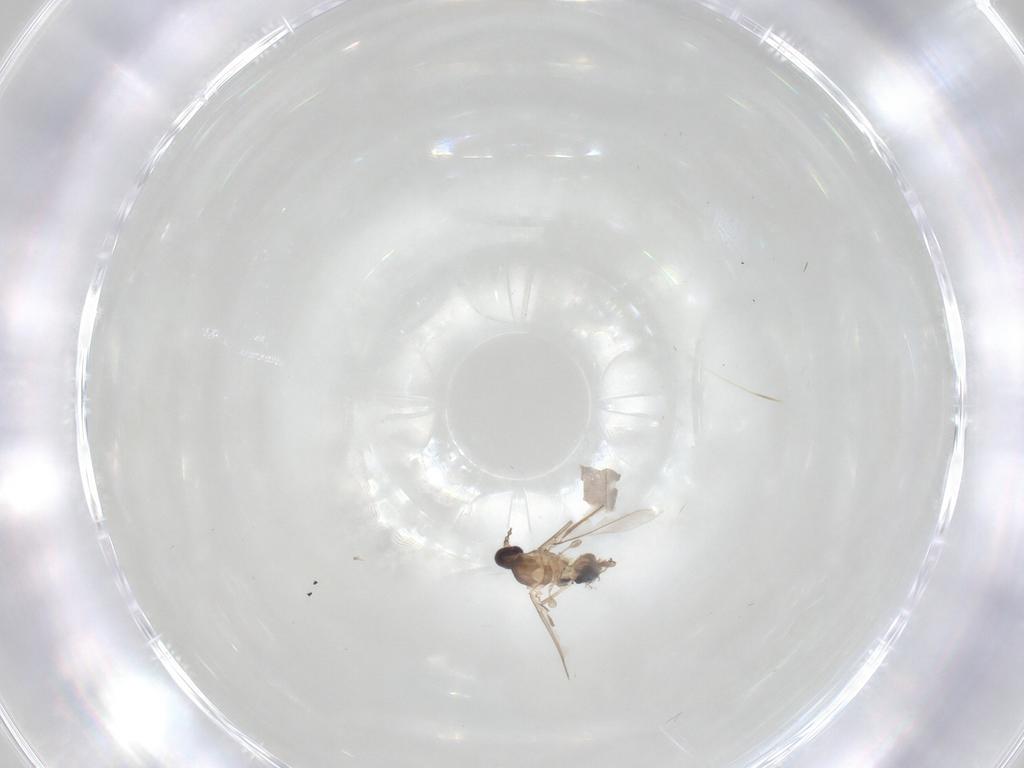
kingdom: Animalia
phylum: Arthropoda
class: Insecta
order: Diptera
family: Limoniidae
